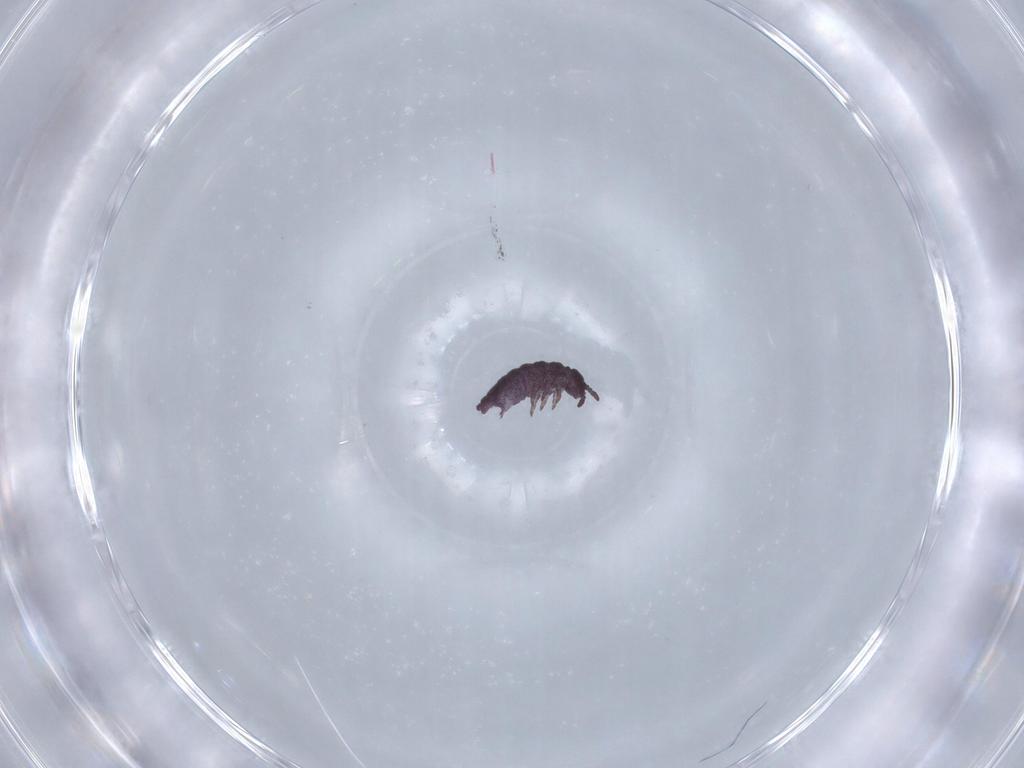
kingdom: Animalia
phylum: Arthropoda
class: Collembola
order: Poduromorpha
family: Hypogastruridae
